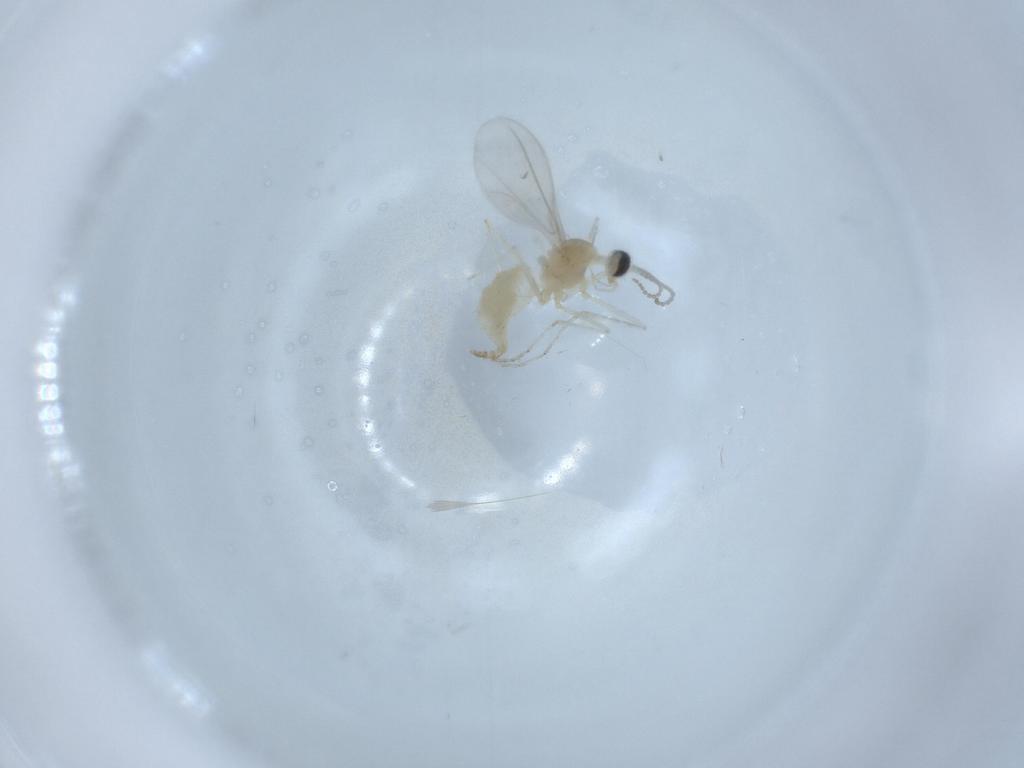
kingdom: Animalia
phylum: Arthropoda
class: Insecta
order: Diptera
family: Cecidomyiidae
